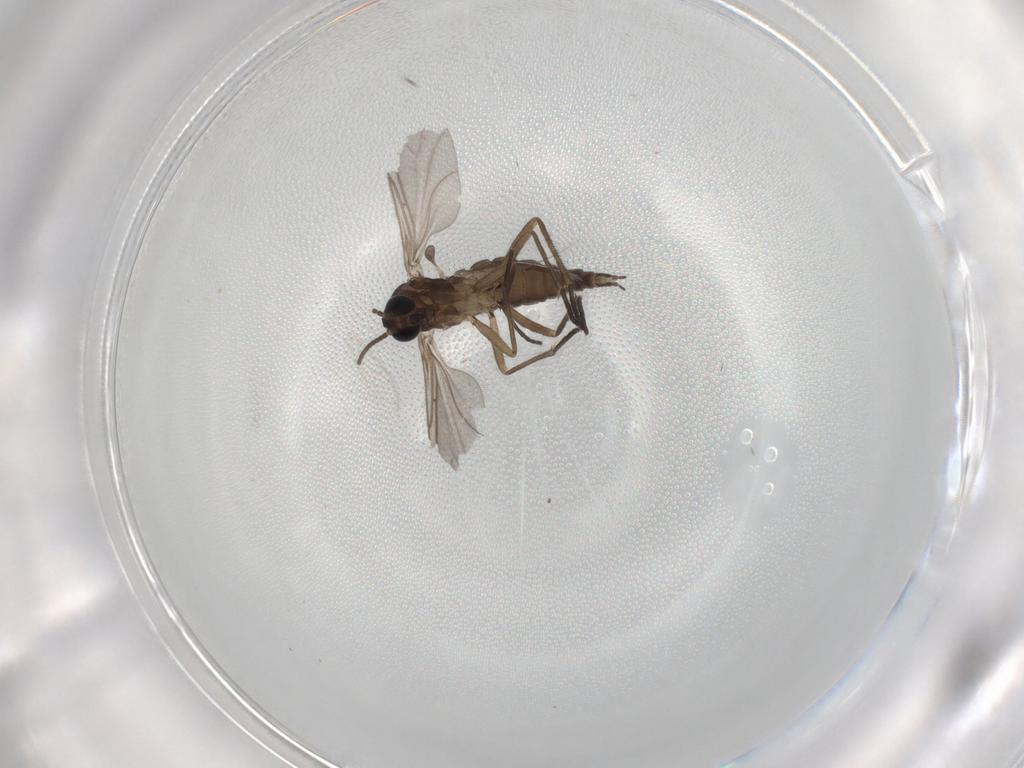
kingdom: Animalia
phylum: Arthropoda
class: Insecta
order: Diptera
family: Sciaridae
